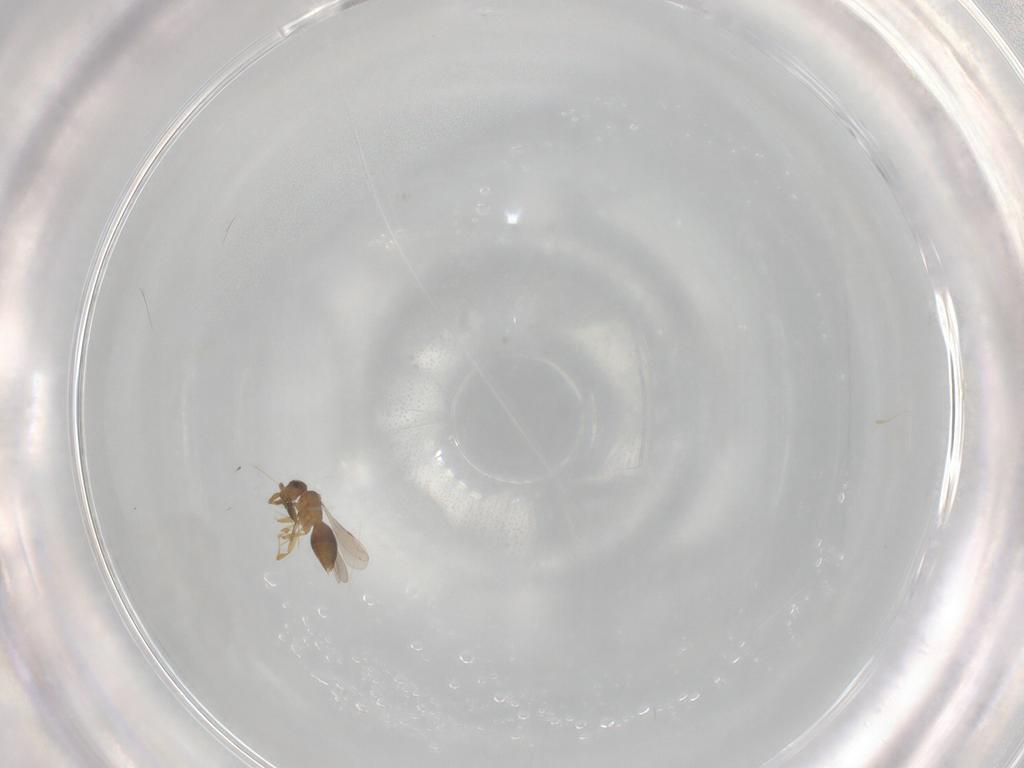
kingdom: Animalia
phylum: Arthropoda
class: Insecta
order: Hymenoptera
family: Ceraphronidae
